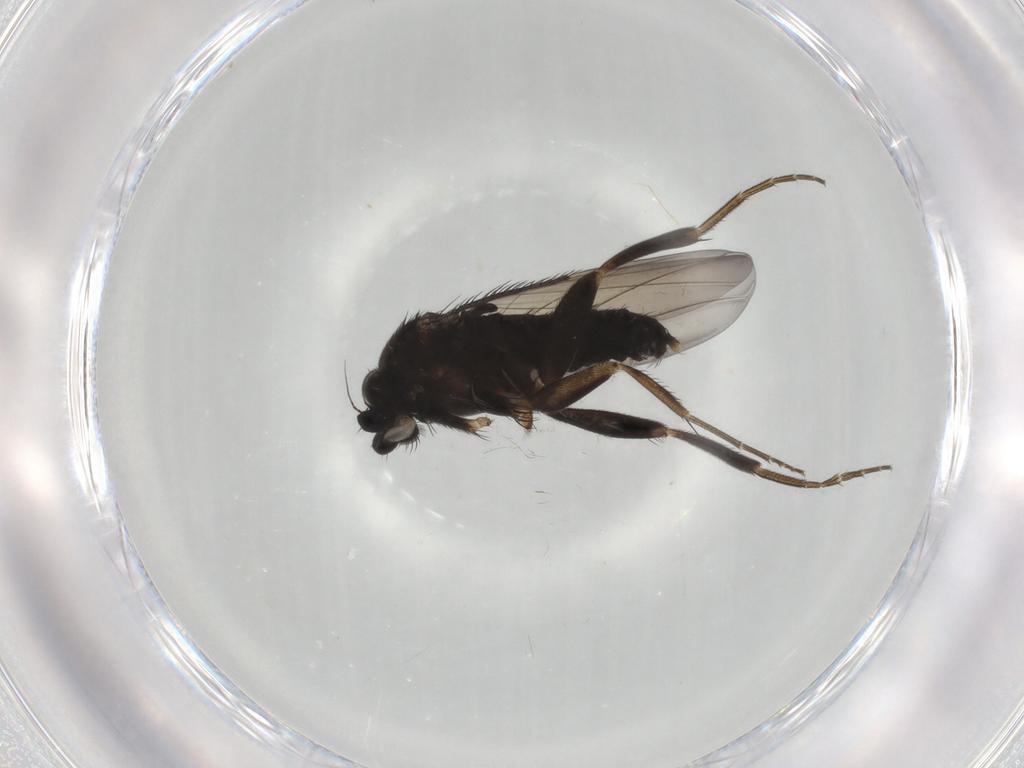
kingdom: Animalia
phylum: Arthropoda
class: Insecta
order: Diptera
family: Phoridae
